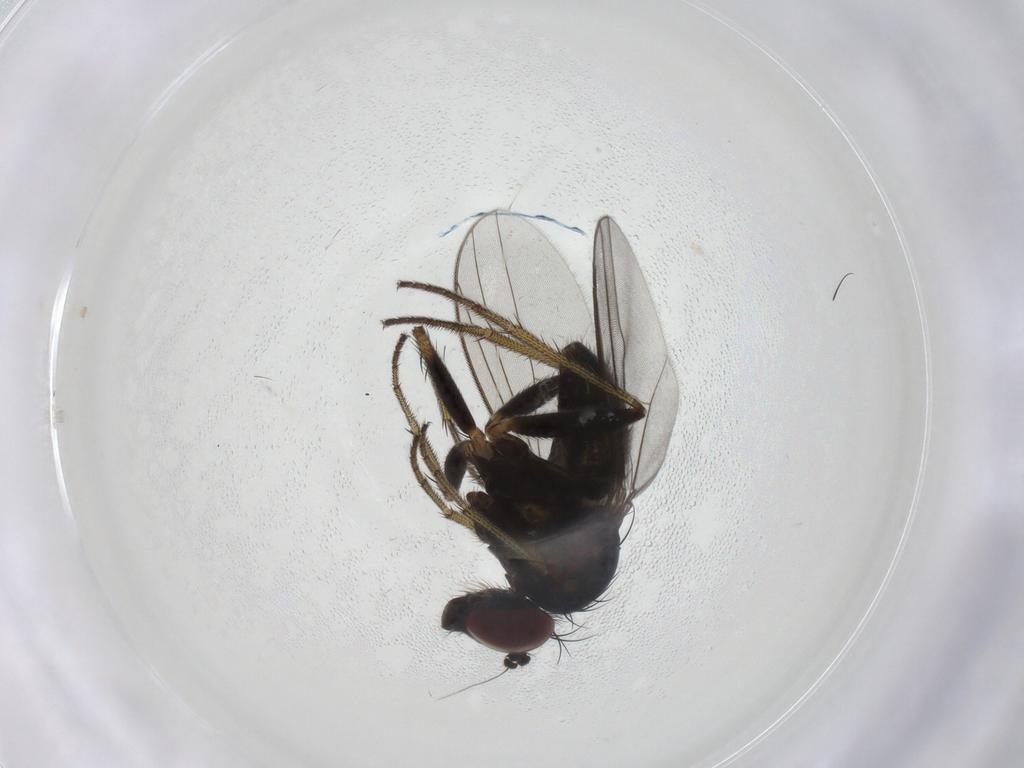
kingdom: Animalia
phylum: Arthropoda
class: Insecta
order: Diptera
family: Dolichopodidae
